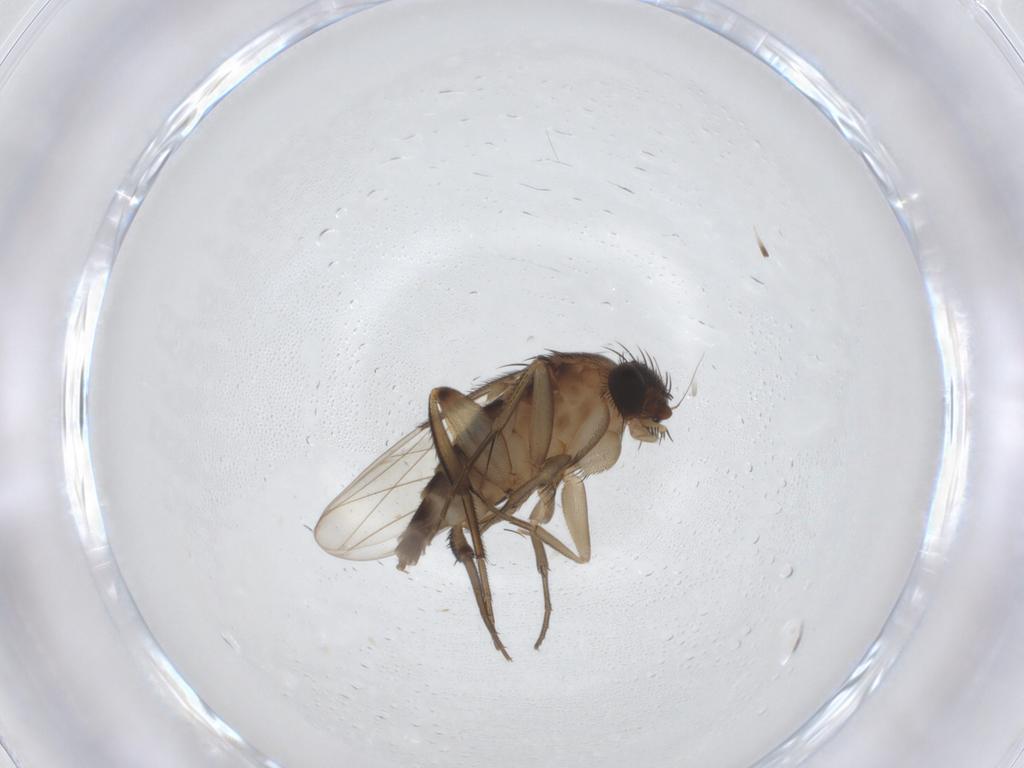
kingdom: Animalia
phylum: Arthropoda
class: Insecta
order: Diptera
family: Phoridae
